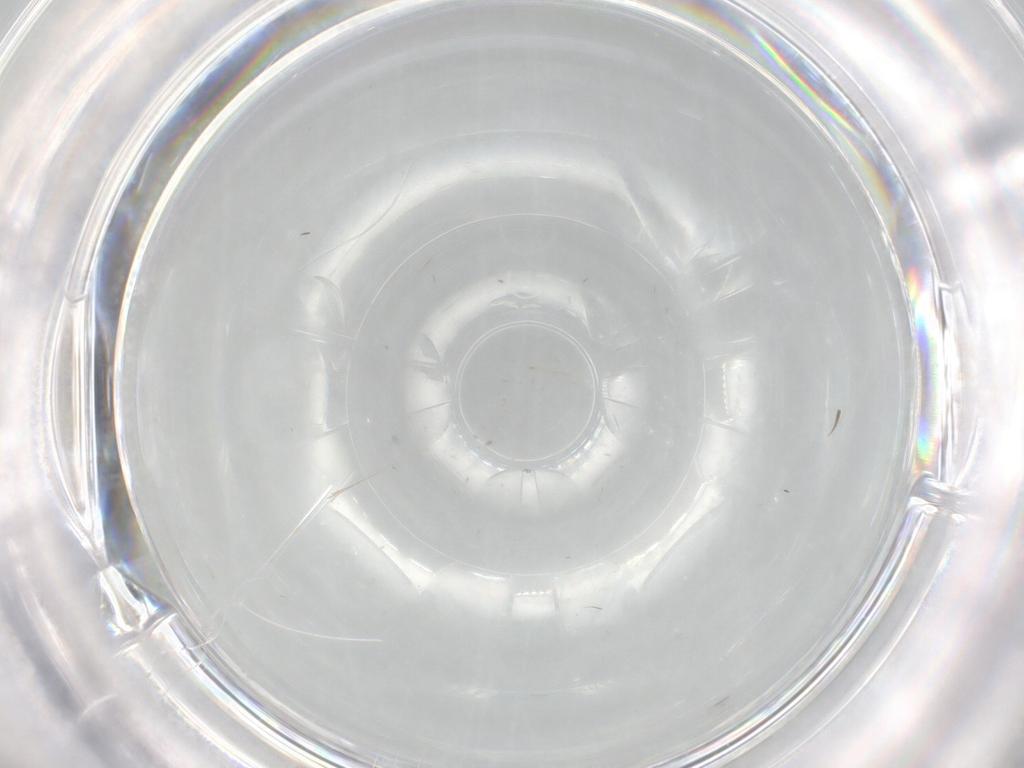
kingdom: Animalia
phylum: Arthropoda
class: Insecta
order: Diptera
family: Cecidomyiidae
